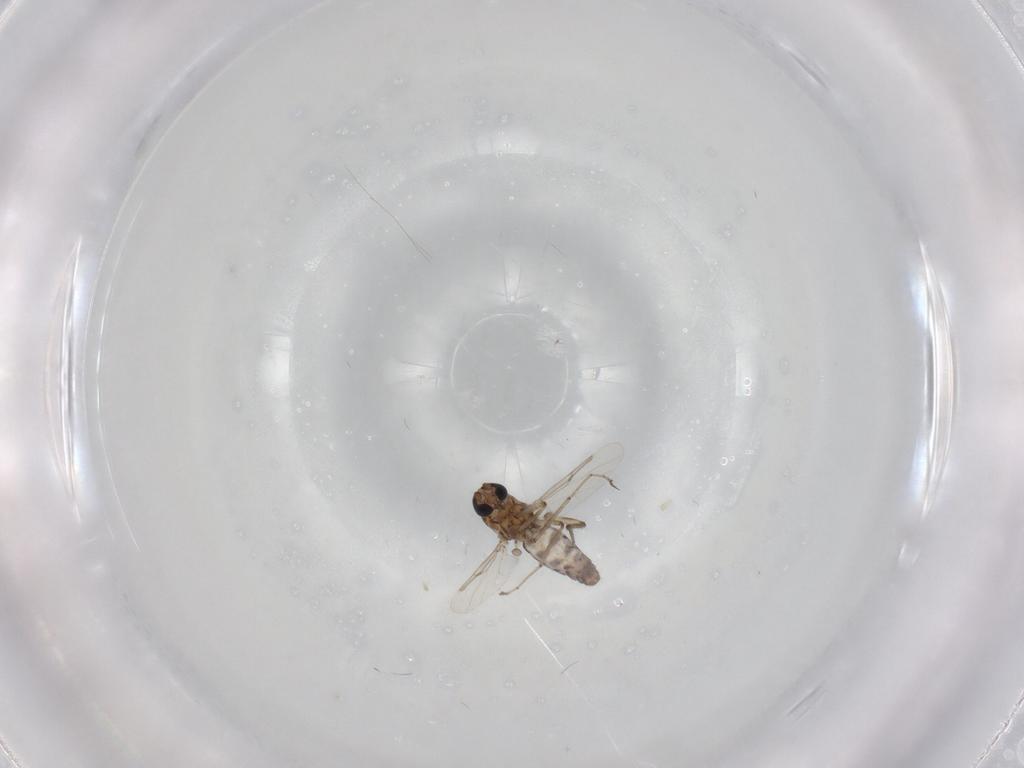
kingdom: Animalia
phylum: Arthropoda
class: Insecta
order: Diptera
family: Ceratopogonidae
